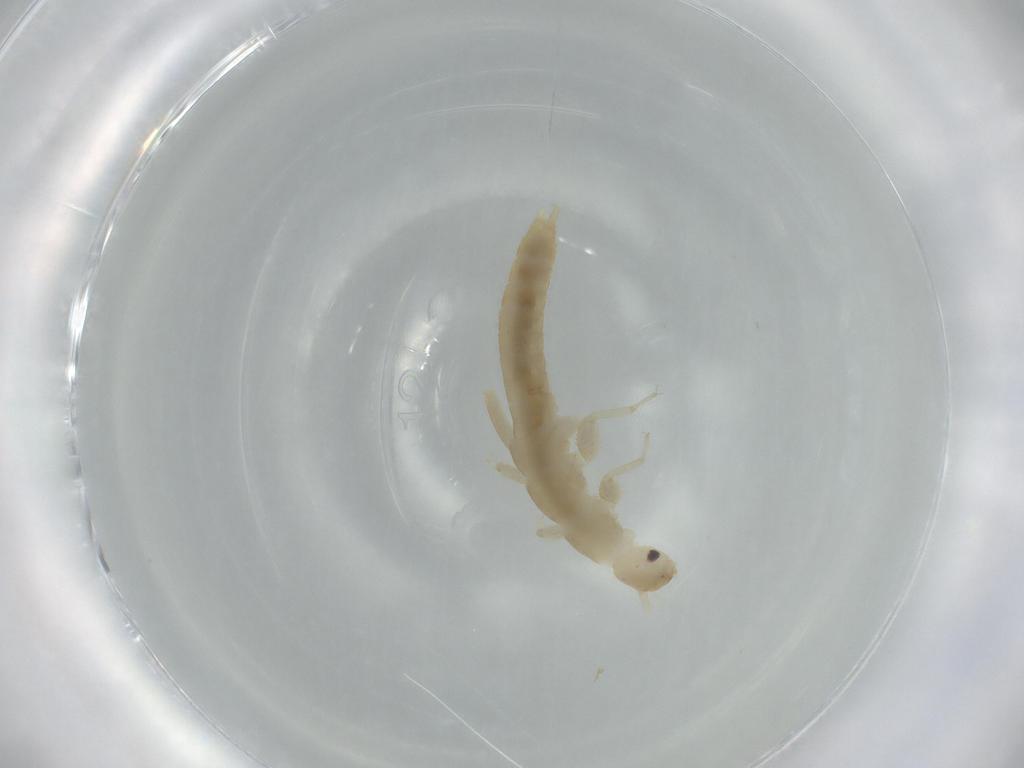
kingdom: Animalia
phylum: Arthropoda
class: Insecta
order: Plecoptera
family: Leuctridae
